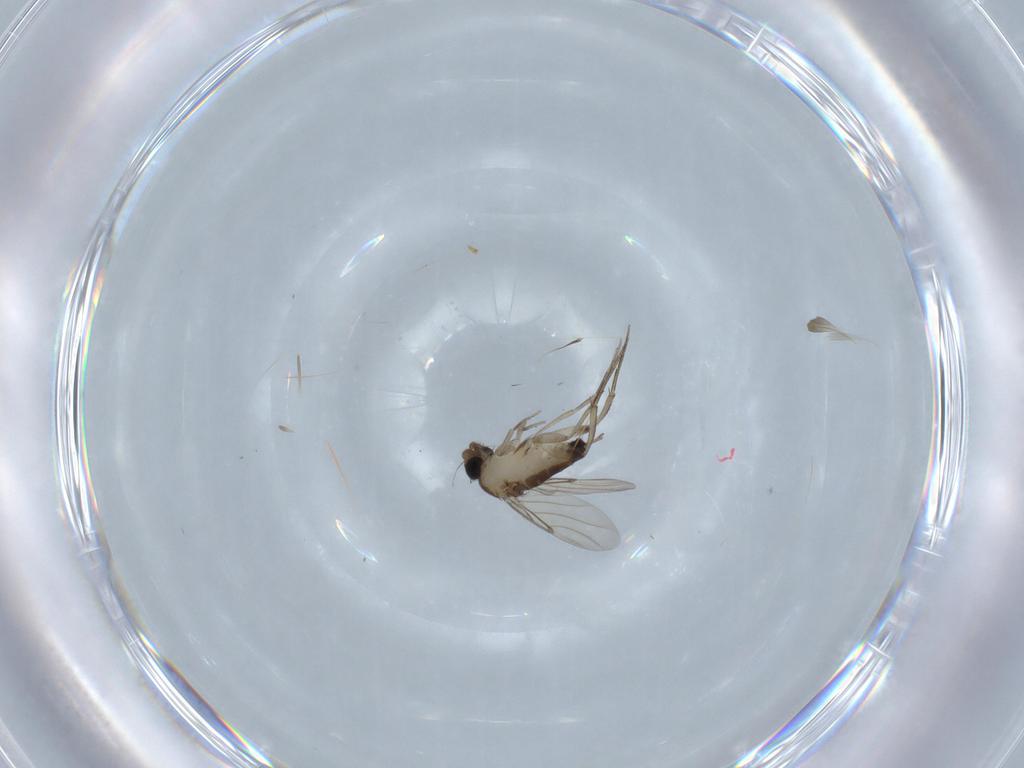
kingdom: Animalia
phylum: Arthropoda
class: Insecta
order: Diptera
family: Phoridae
